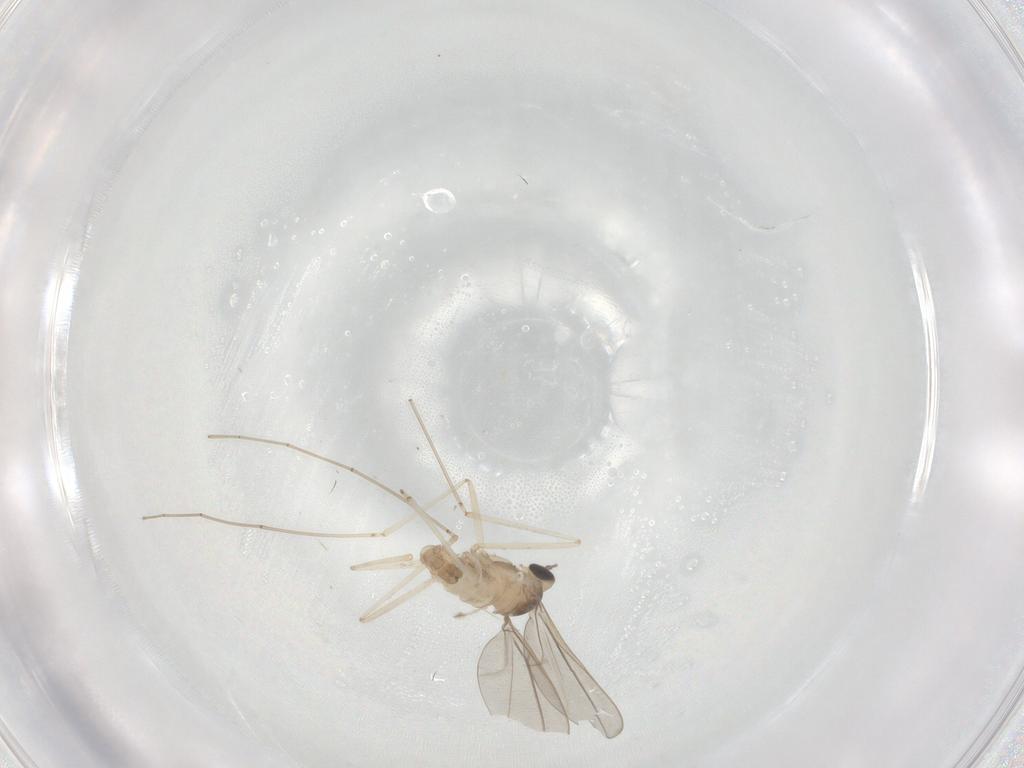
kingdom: Animalia
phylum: Arthropoda
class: Insecta
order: Diptera
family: Cecidomyiidae
